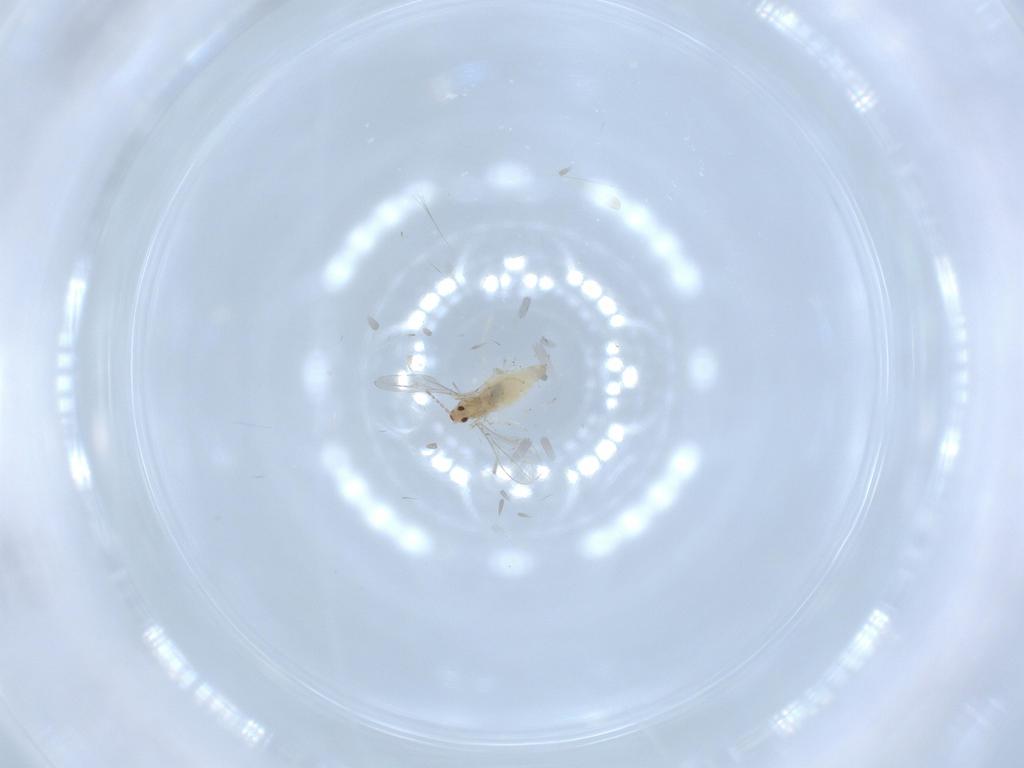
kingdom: Animalia
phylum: Arthropoda
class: Insecta
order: Diptera
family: Cecidomyiidae
